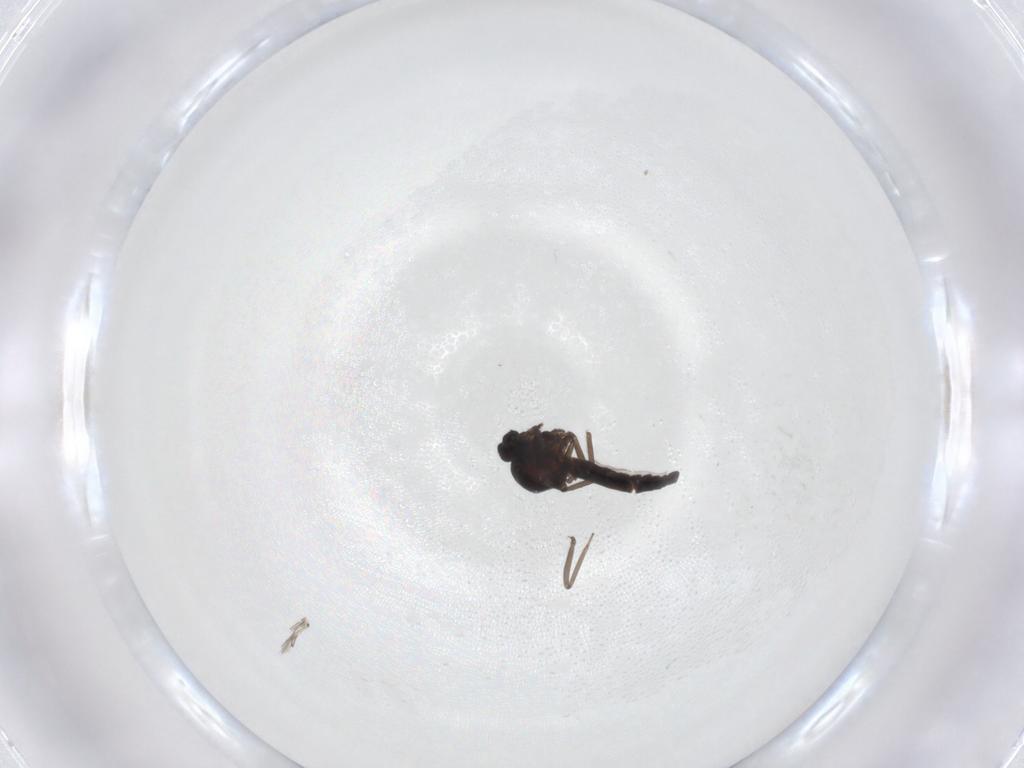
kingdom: Animalia
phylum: Arthropoda
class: Insecta
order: Diptera
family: Ceratopogonidae
